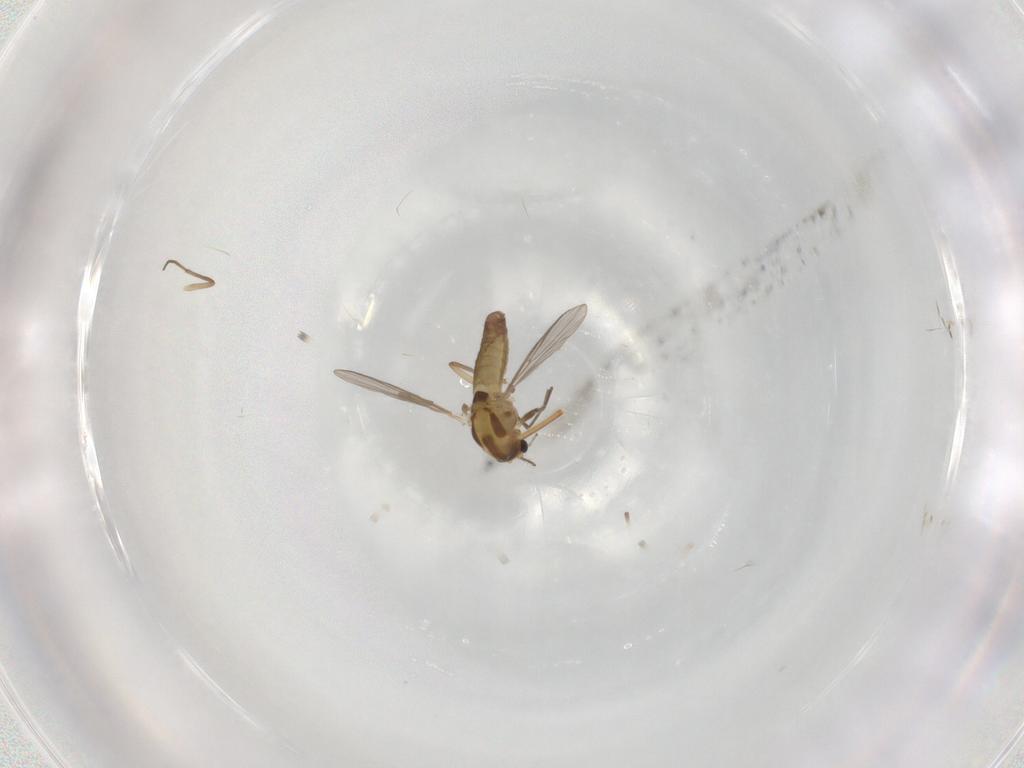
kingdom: Animalia
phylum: Arthropoda
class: Insecta
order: Diptera
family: Chironomidae
